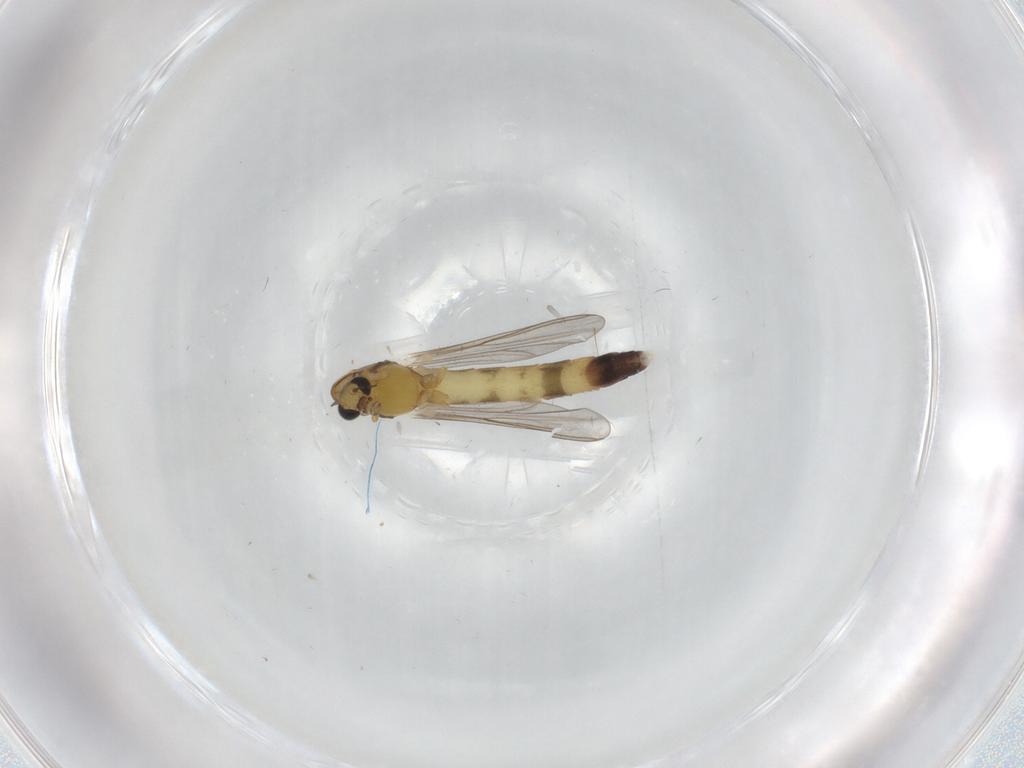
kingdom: Animalia
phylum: Arthropoda
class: Insecta
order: Diptera
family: Chironomidae
